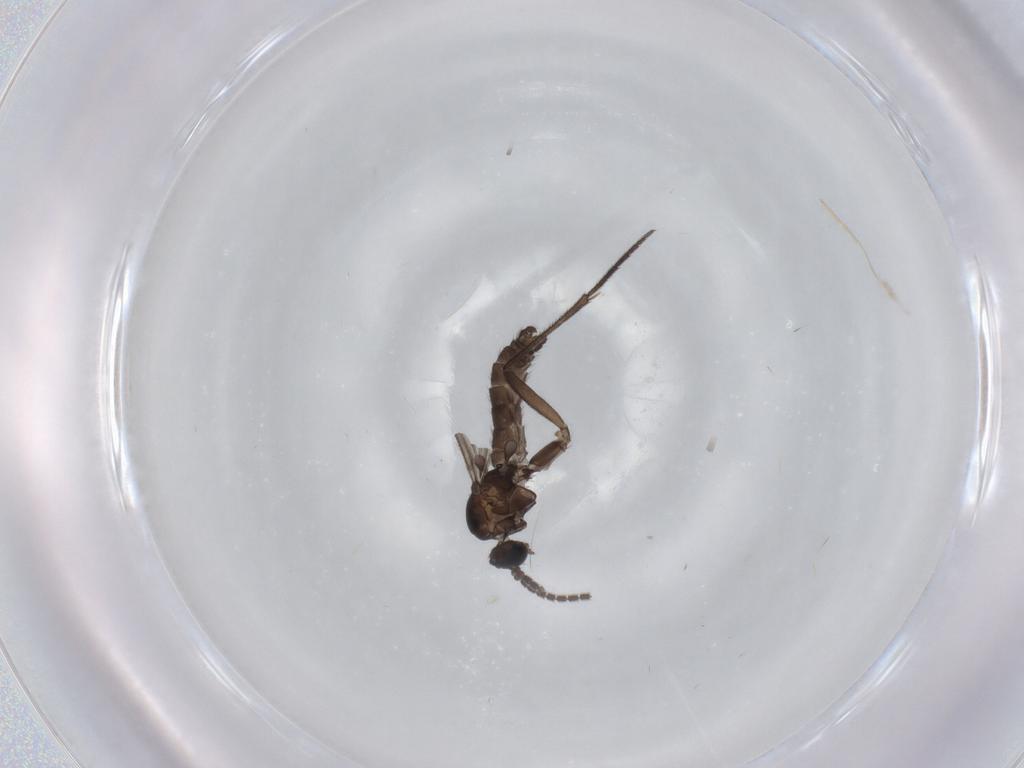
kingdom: Animalia
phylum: Arthropoda
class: Insecta
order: Diptera
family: Sciaridae
